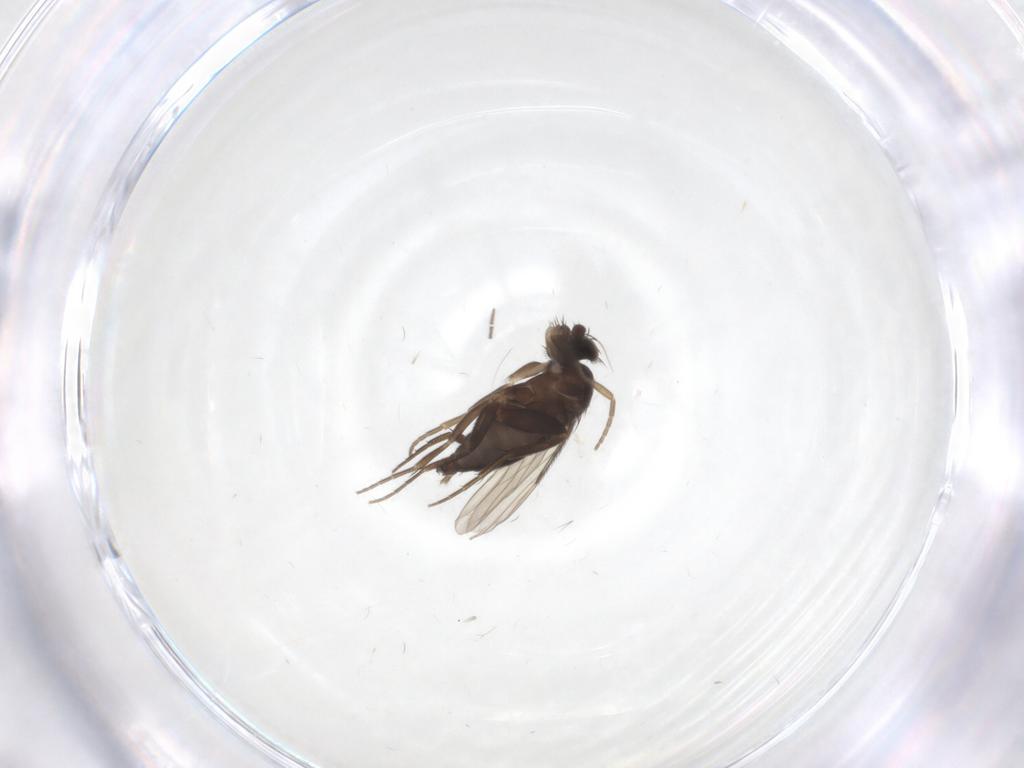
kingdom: Animalia
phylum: Arthropoda
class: Insecta
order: Diptera
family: Phoridae
